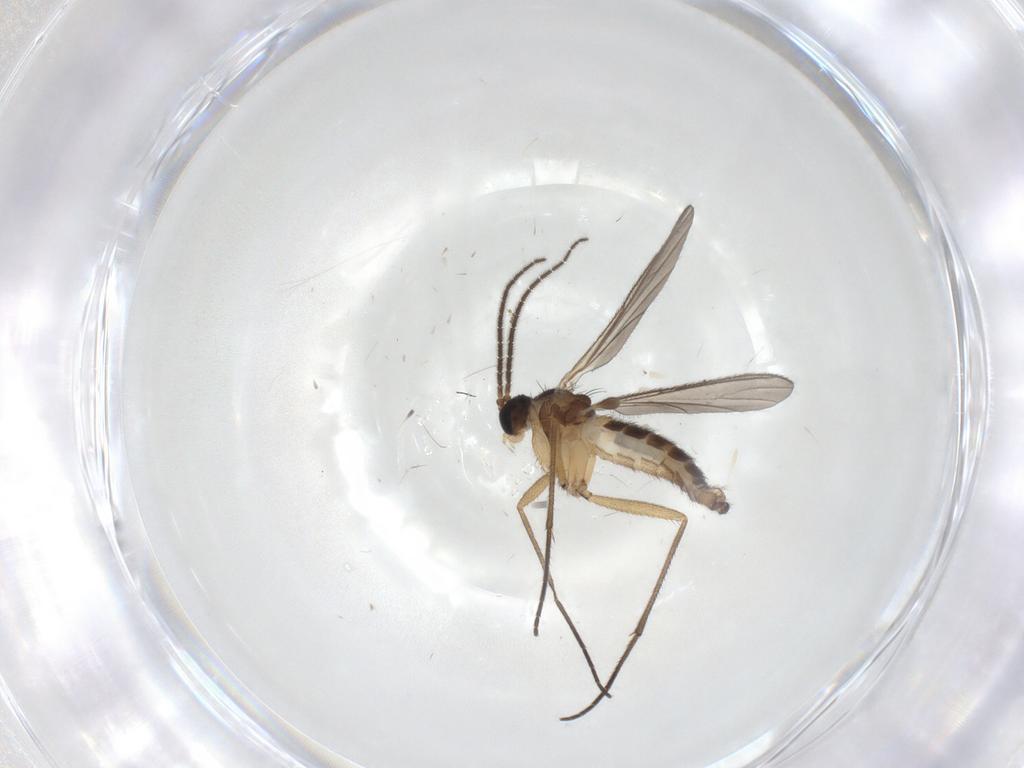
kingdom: Animalia
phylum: Arthropoda
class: Insecta
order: Diptera
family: Sciaridae
